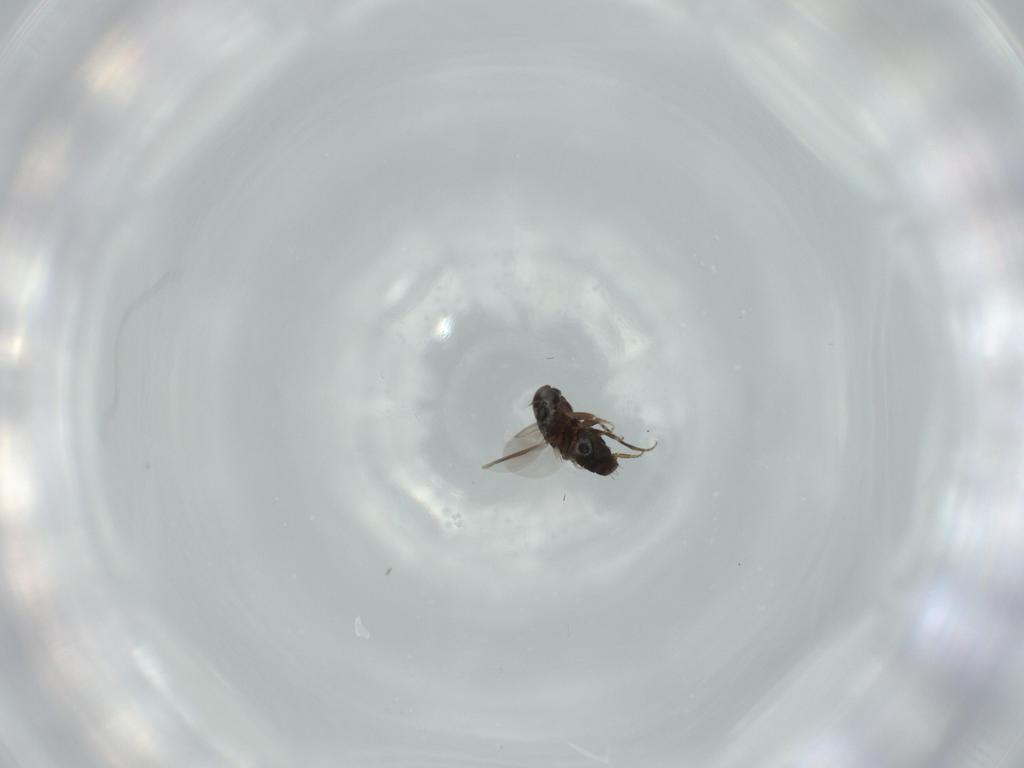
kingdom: Animalia
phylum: Arthropoda
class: Insecta
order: Diptera
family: Phoridae
